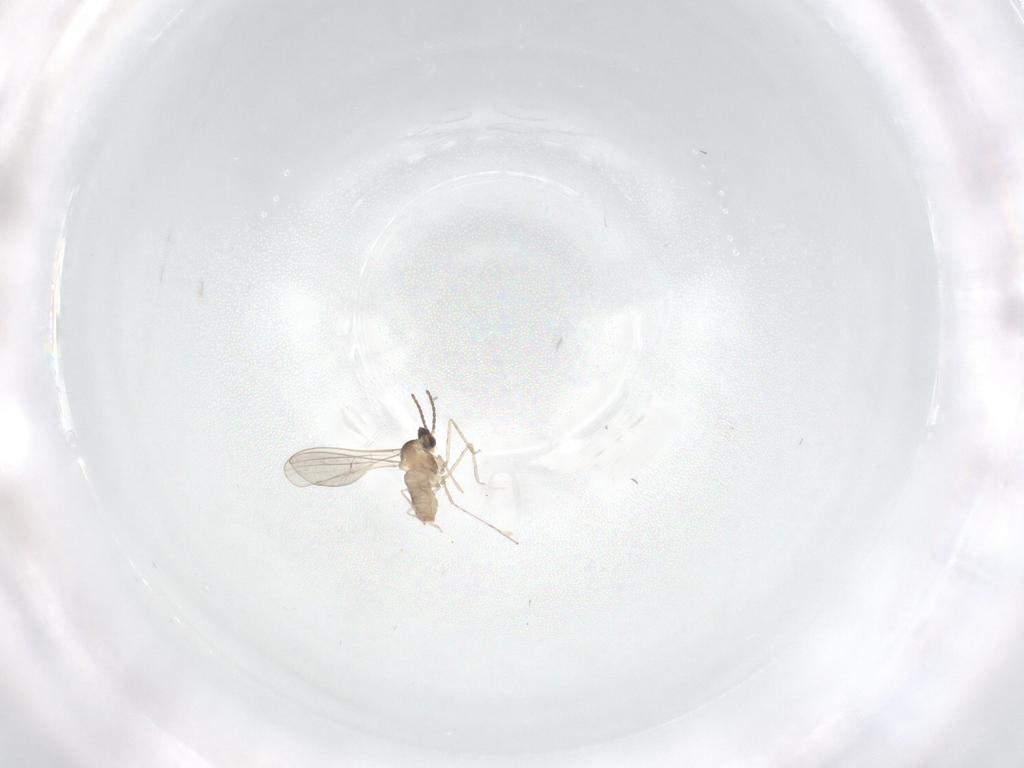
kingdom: Animalia
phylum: Arthropoda
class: Insecta
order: Diptera
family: Cecidomyiidae
